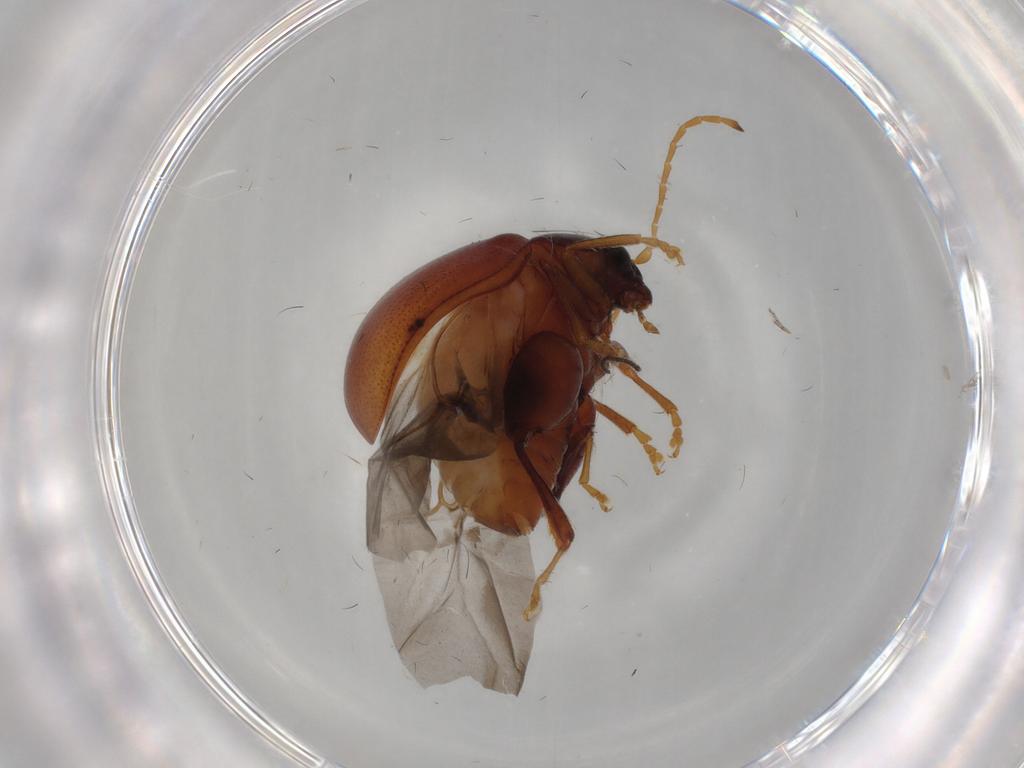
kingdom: Animalia
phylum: Arthropoda
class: Insecta
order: Coleoptera
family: Chrysomelidae
